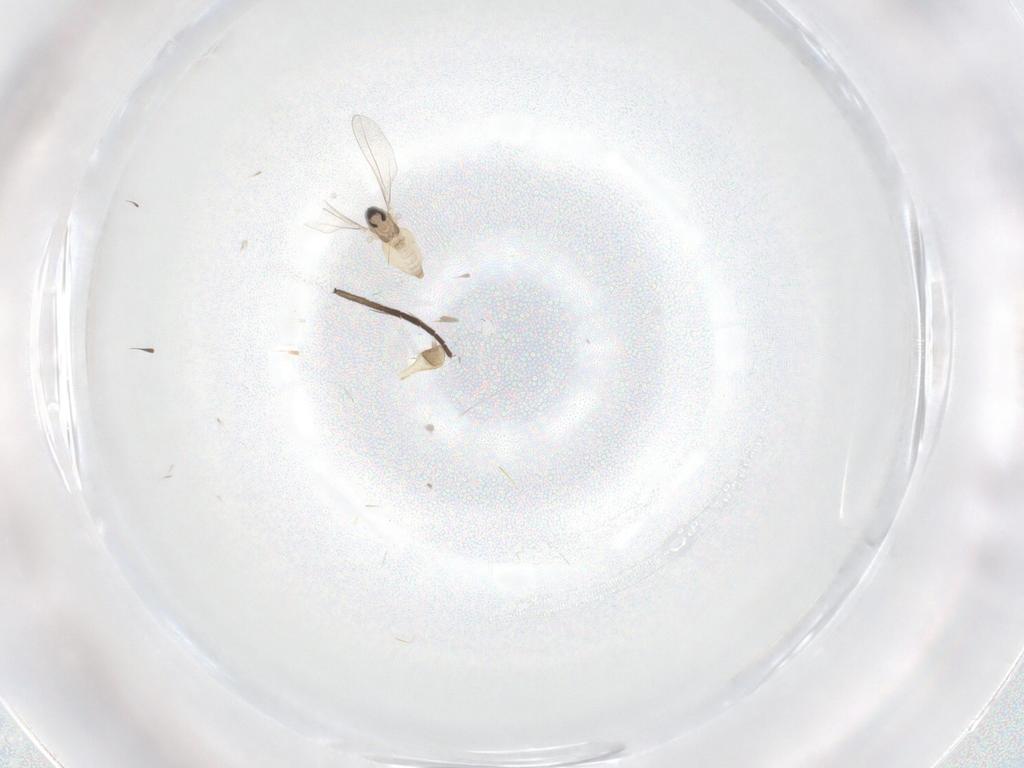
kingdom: Animalia
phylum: Arthropoda
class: Insecta
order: Diptera
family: Cecidomyiidae
